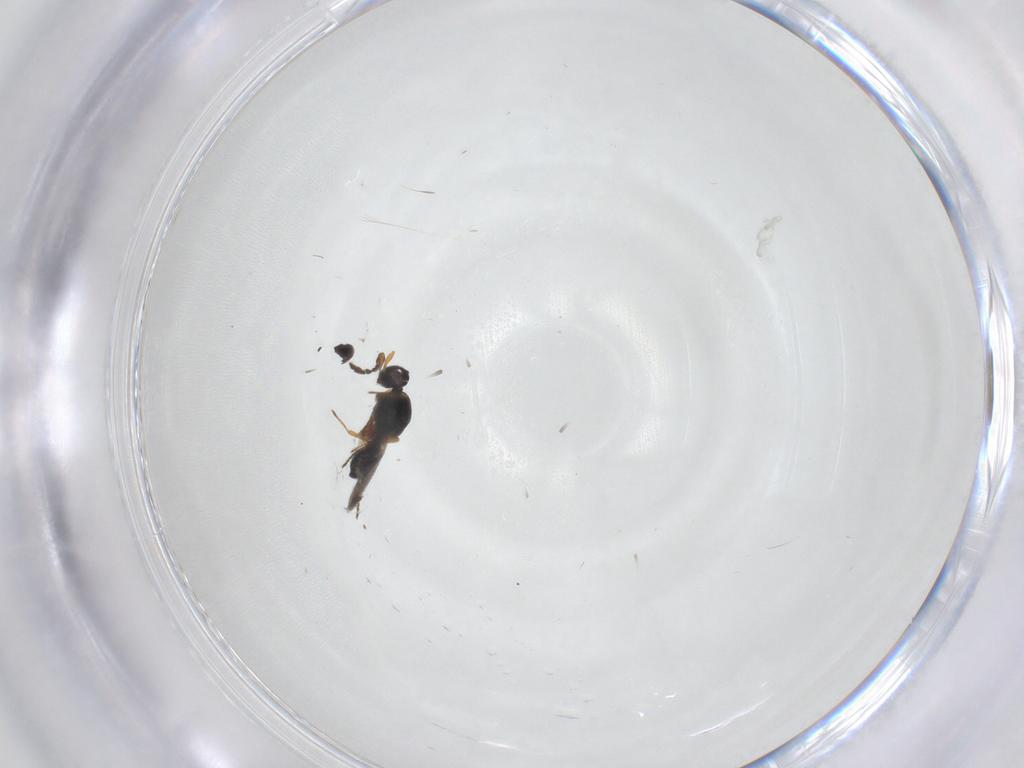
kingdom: Animalia
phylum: Arthropoda
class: Insecta
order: Hymenoptera
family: Platygastridae
